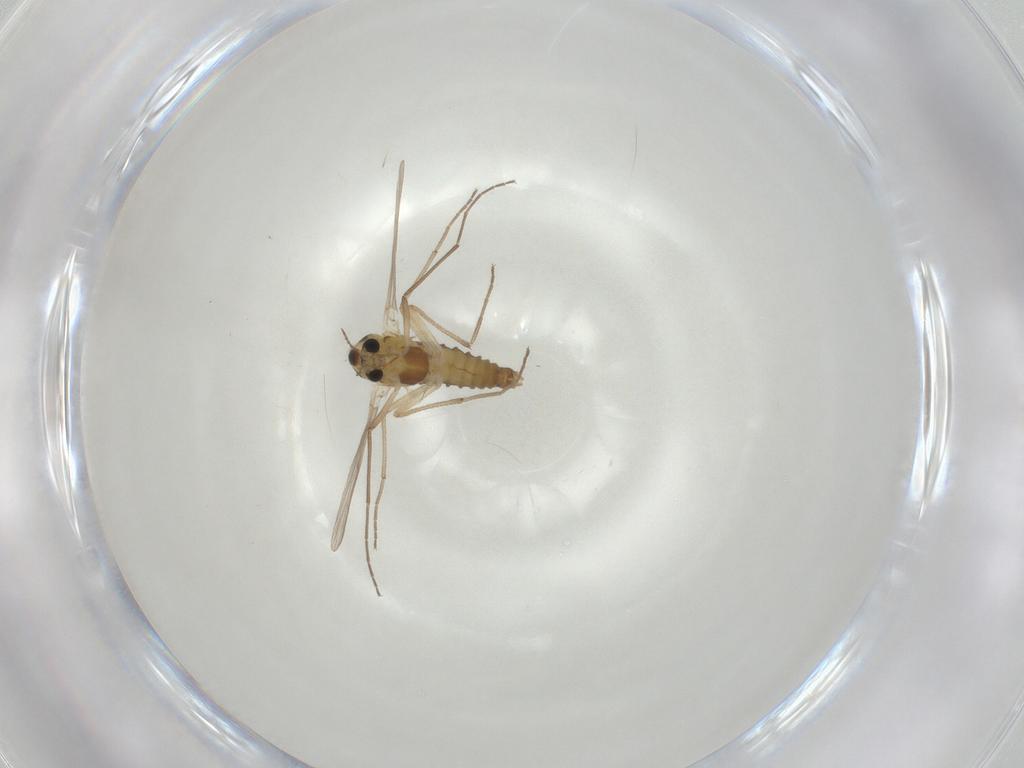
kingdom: Animalia
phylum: Arthropoda
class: Insecta
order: Diptera
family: Chironomidae
